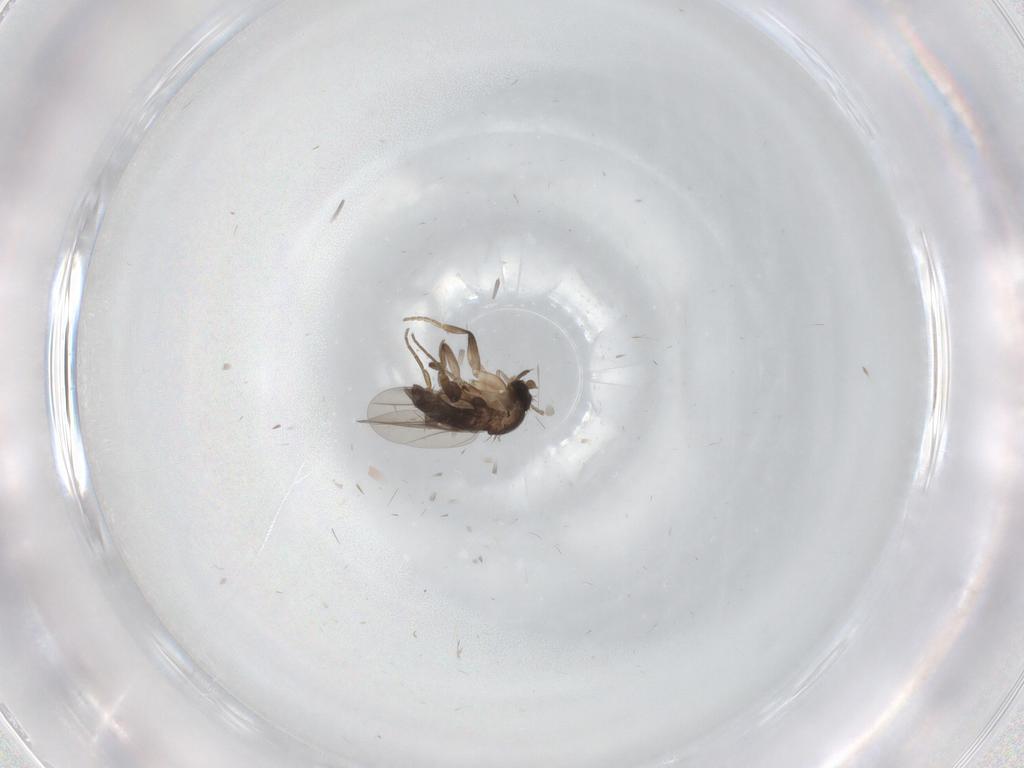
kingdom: Animalia
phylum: Arthropoda
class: Insecta
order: Diptera
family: Phoridae
